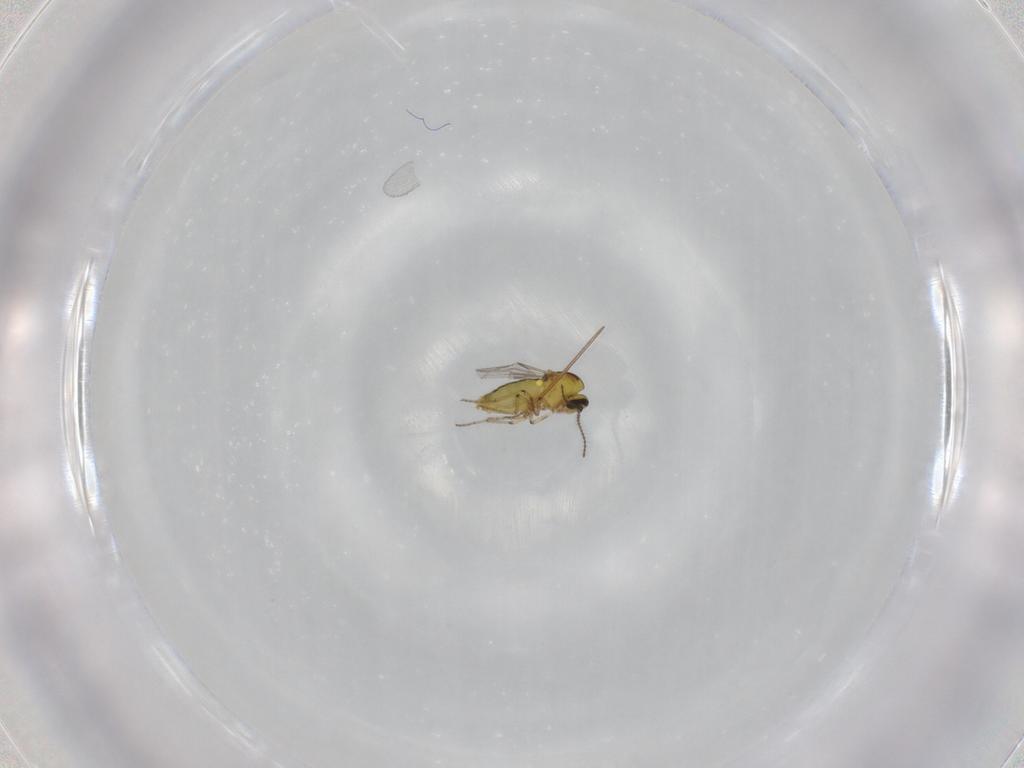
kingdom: Animalia
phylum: Arthropoda
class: Insecta
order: Diptera
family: Ceratopogonidae
